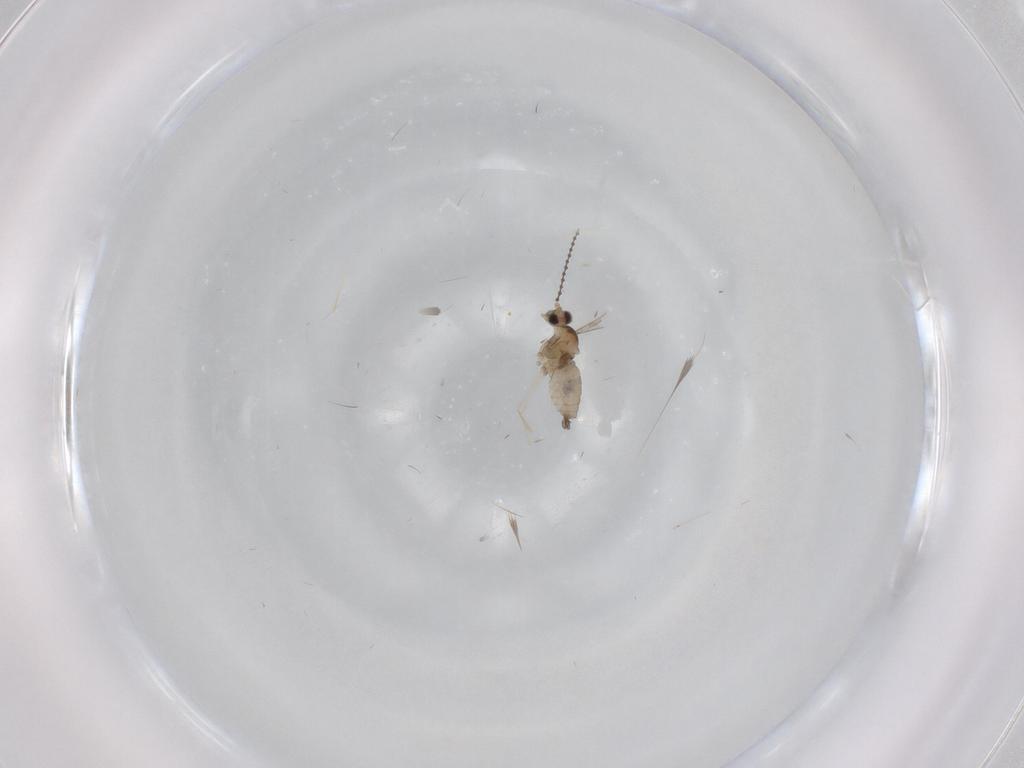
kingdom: Animalia
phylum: Arthropoda
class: Insecta
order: Diptera
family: Cecidomyiidae
